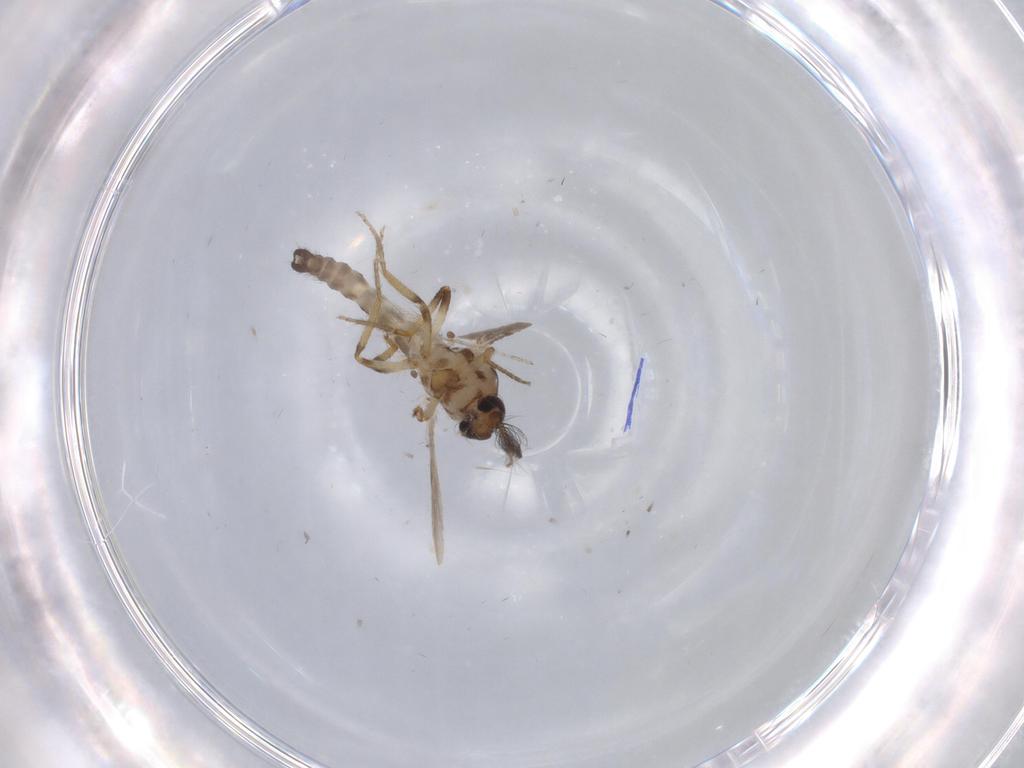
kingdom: Animalia
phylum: Arthropoda
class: Insecta
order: Diptera
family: Ceratopogonidae
